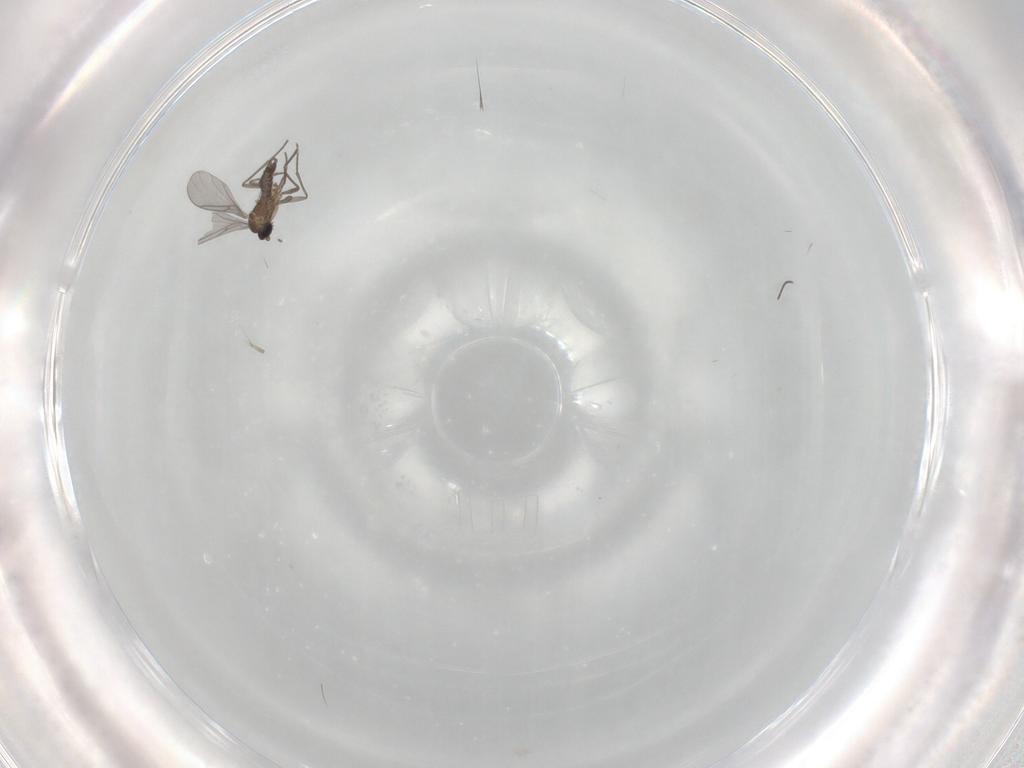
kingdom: Animalia
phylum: Arthropoda
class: Insecta
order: Diptera
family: Cecidomyiidae
